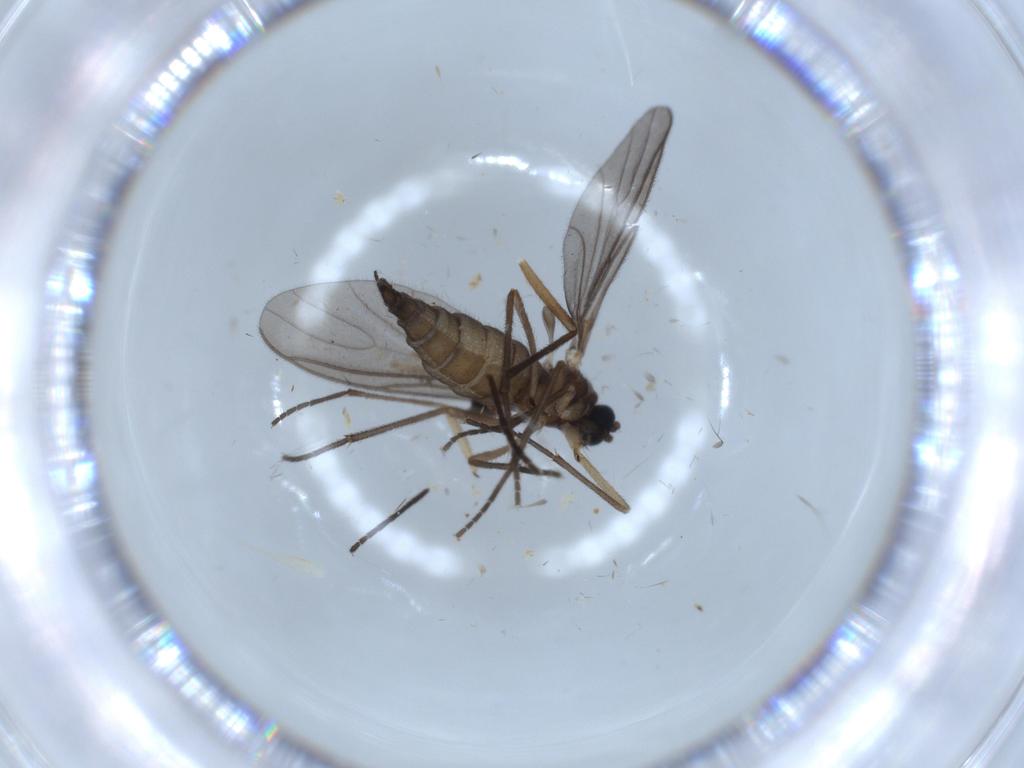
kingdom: Animalia
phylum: Arthropoda
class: Insecta
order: Diptera
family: Sciaridae
